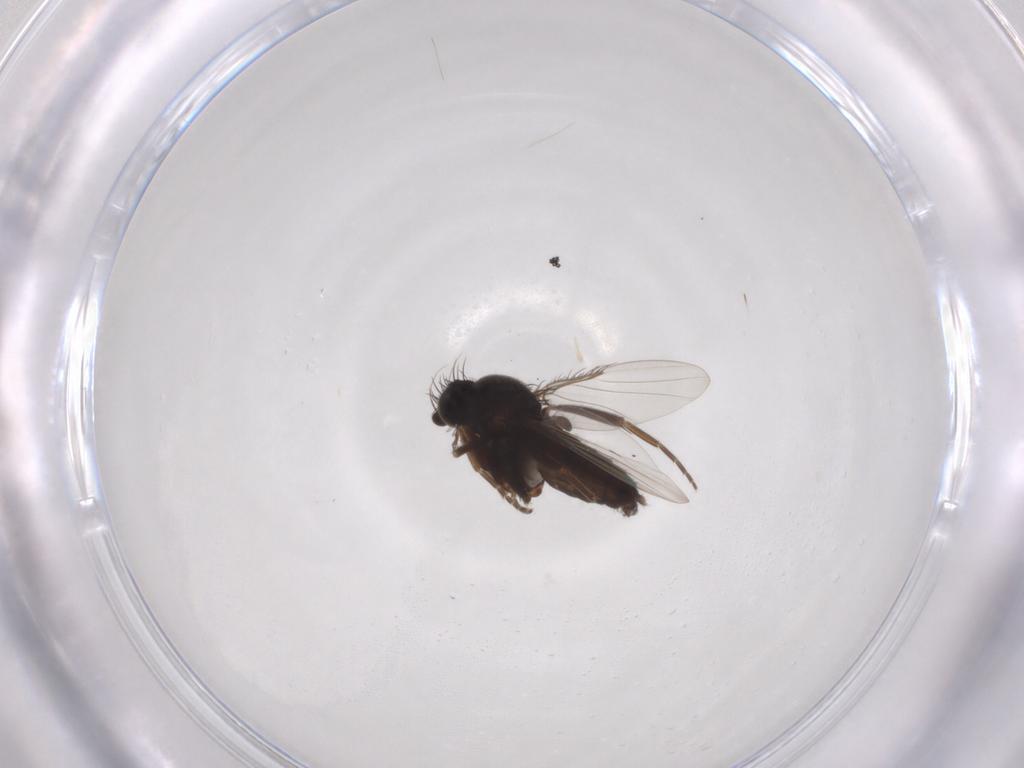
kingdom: Animalia
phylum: Arthropoda
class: Insecta
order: Diptera
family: Phoridae
